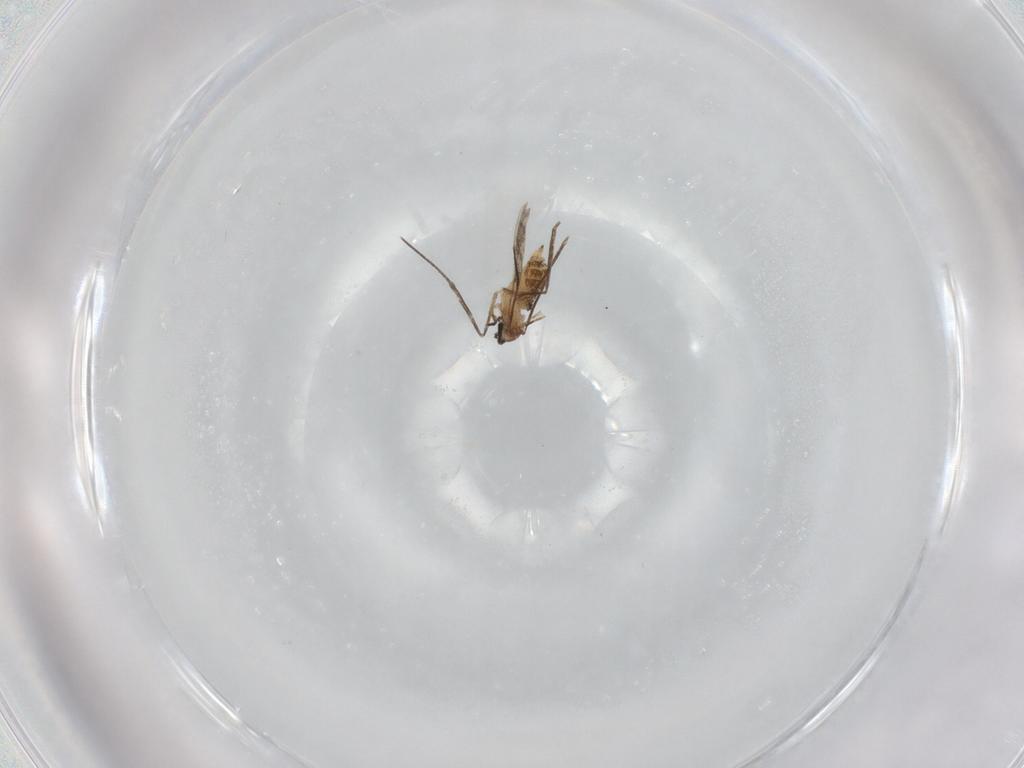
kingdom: Animalia
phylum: Arthropoda
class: Insecta
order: Diptera
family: Cecidomyiidae
